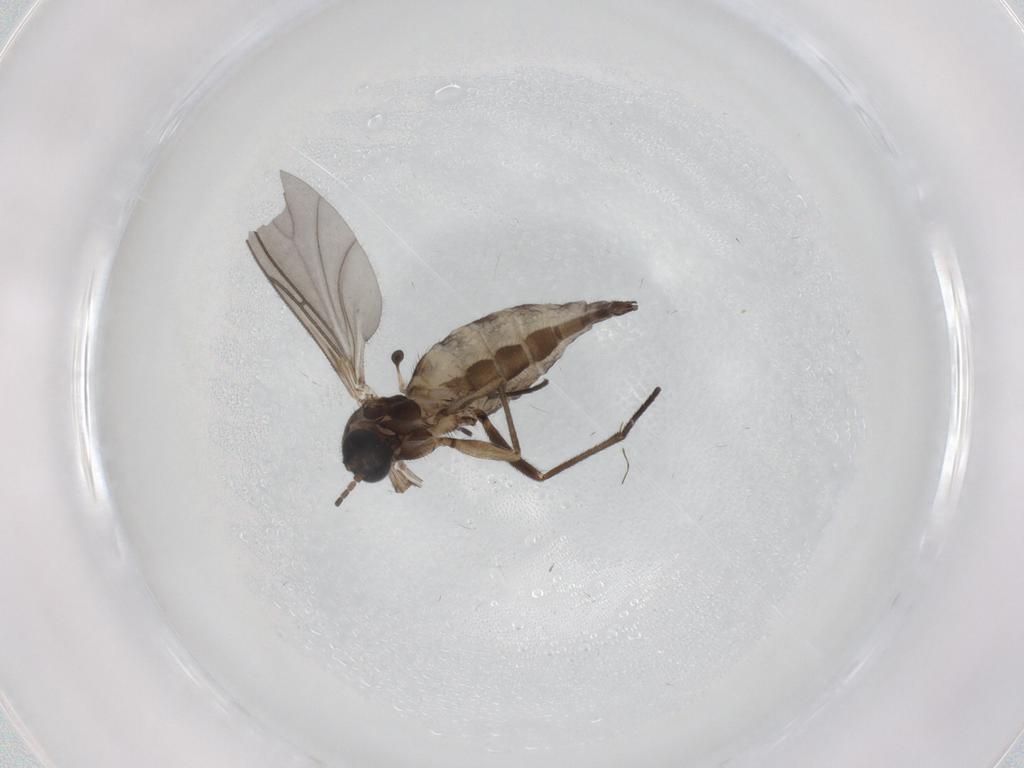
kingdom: Animalia
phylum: Arthropoda
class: Insecta
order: Diptera
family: Sciaridae
